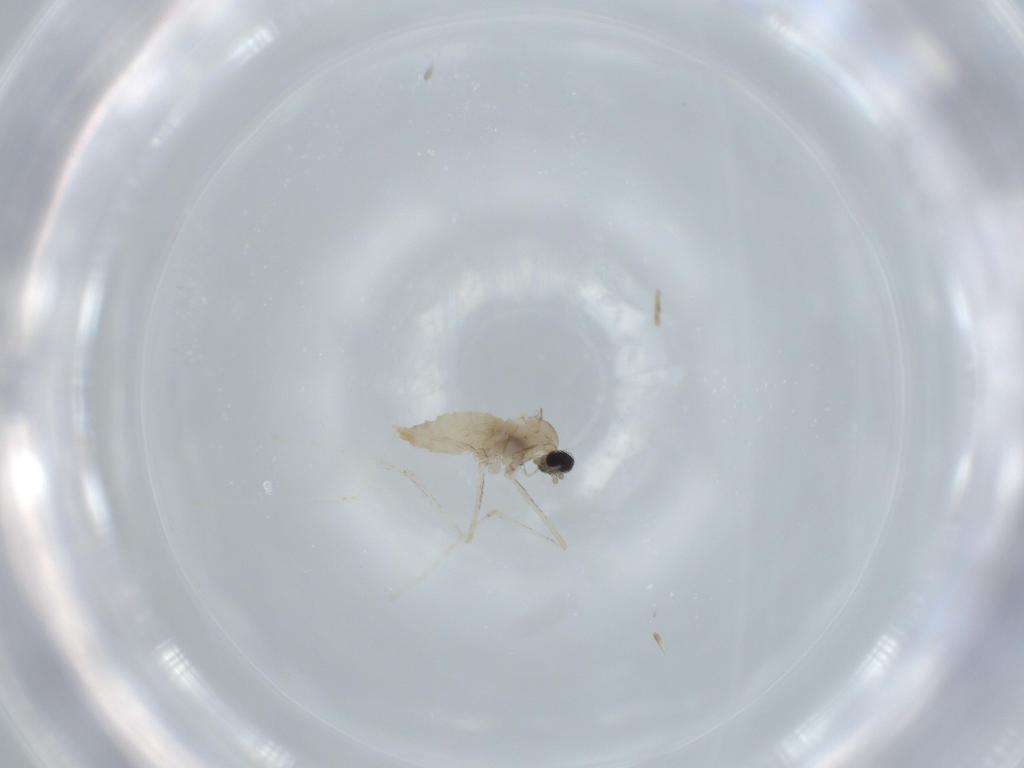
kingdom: Animalia
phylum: Arthropoda
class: Insecta
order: Diptera
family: Cecidomyiidae
